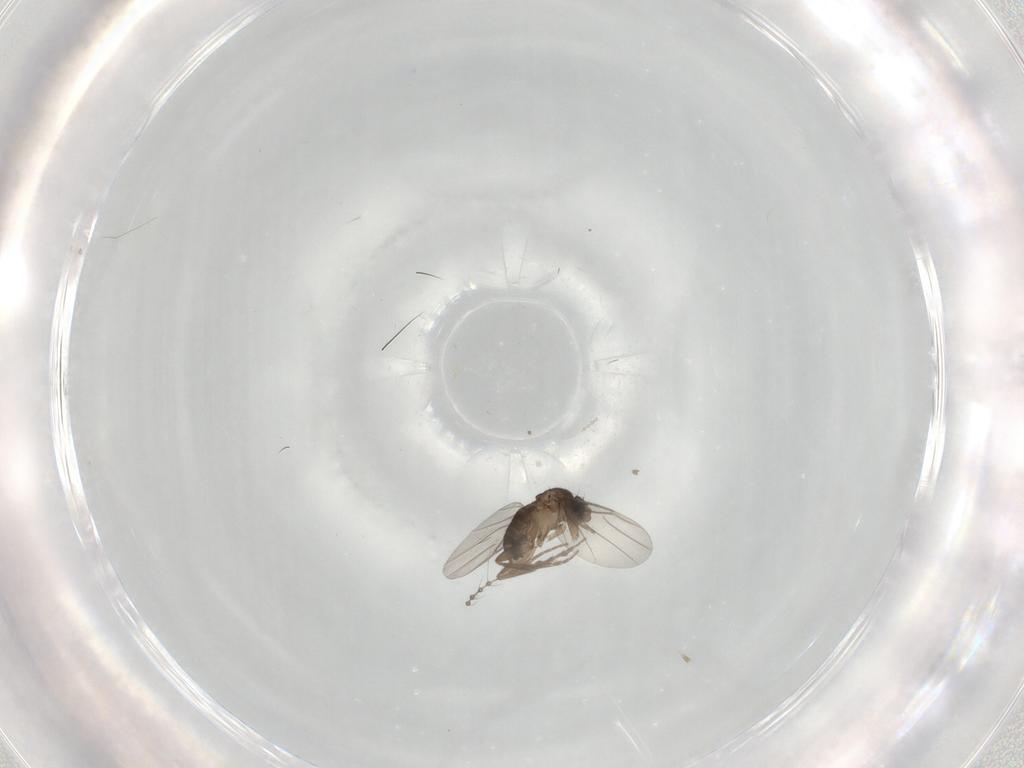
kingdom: Animalia
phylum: Arthropoda
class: Insecta
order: Diptera
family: Cecidomyiidae
